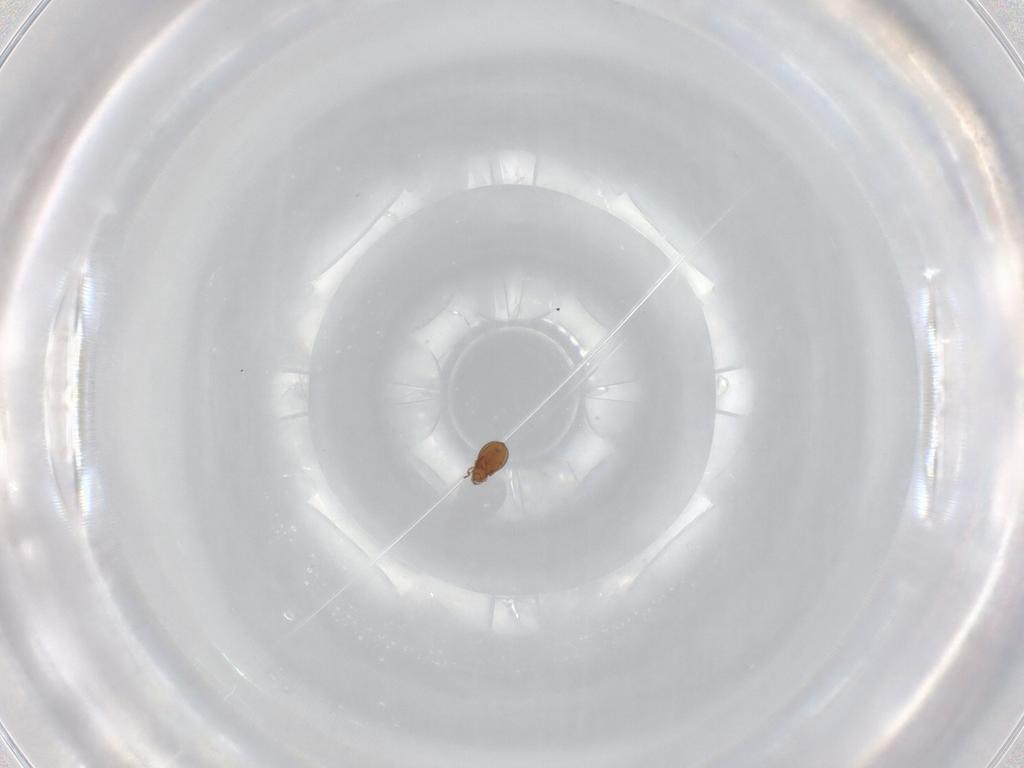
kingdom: Animalia
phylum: Arthropoda
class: Arachnida
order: Sarcoptiformes
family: Oribatulidae
